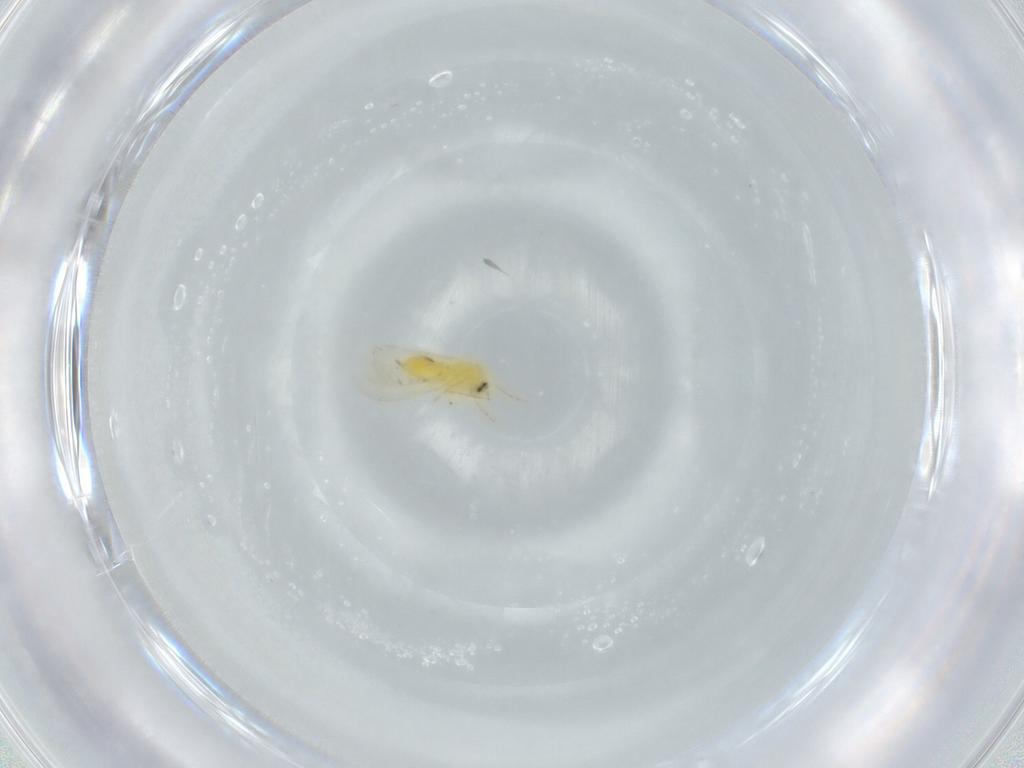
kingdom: Animalia
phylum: Arthropoda
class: Insecta
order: Hemiptera
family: Aleyrodidae
